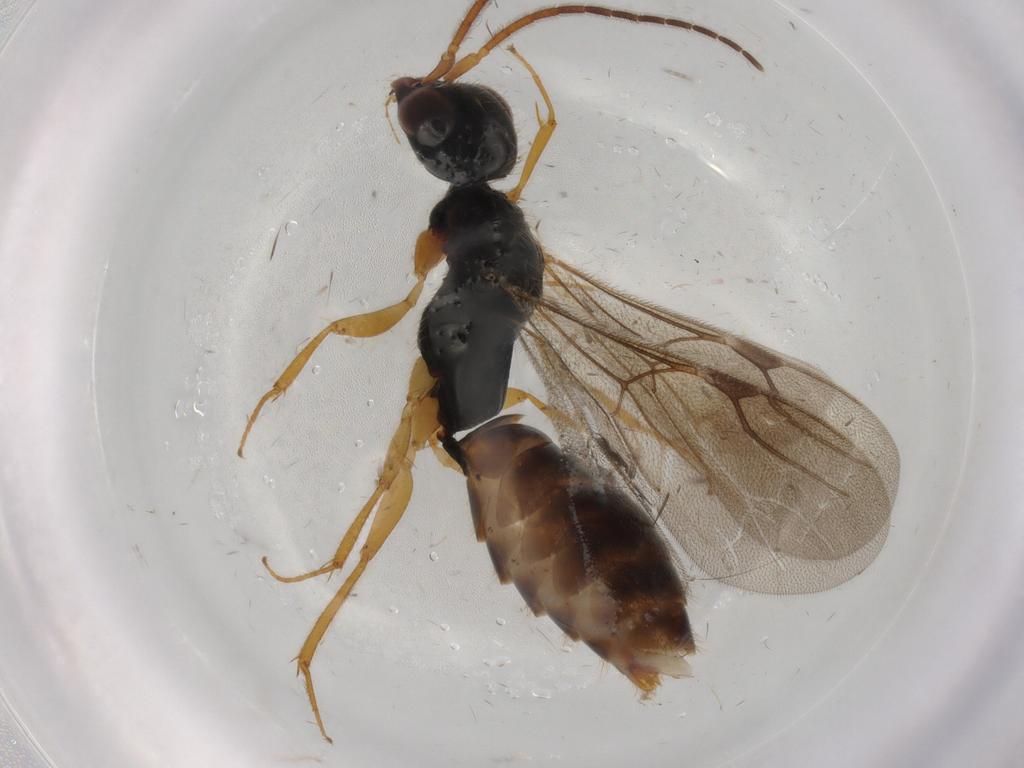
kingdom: Animalia
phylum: Arthropoda
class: Insecta
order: Hymenoptera
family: Bethylidae
